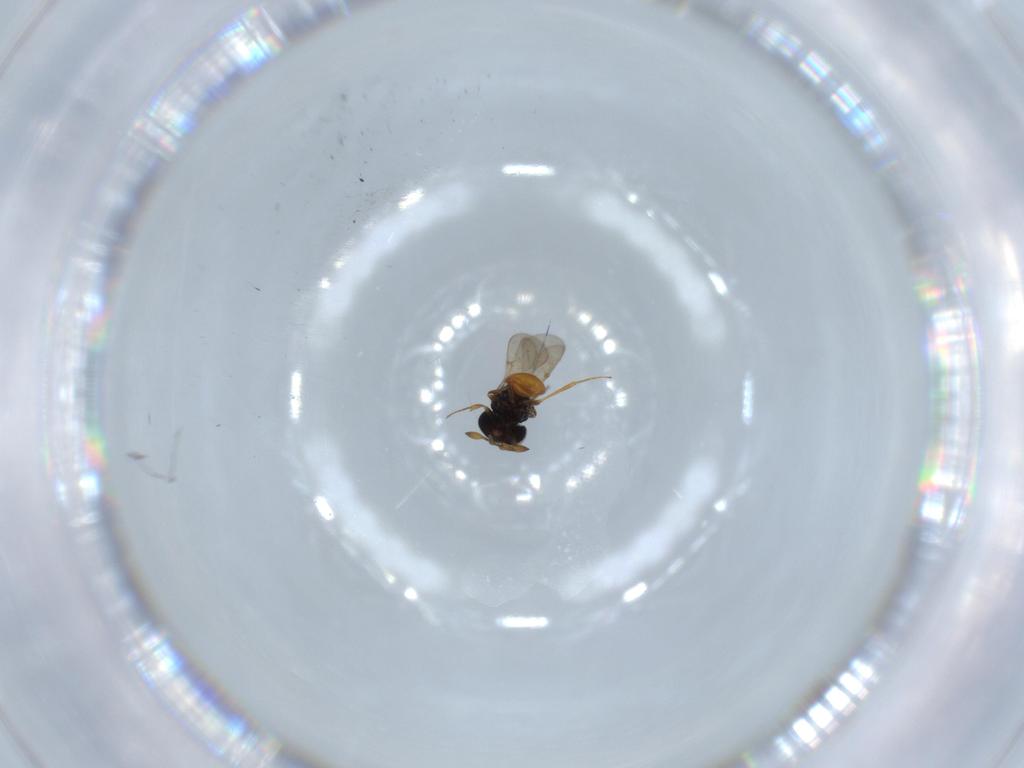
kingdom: Animalia
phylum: Arthropoda
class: Insecta
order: Hymenoptera
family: Scelionidae
